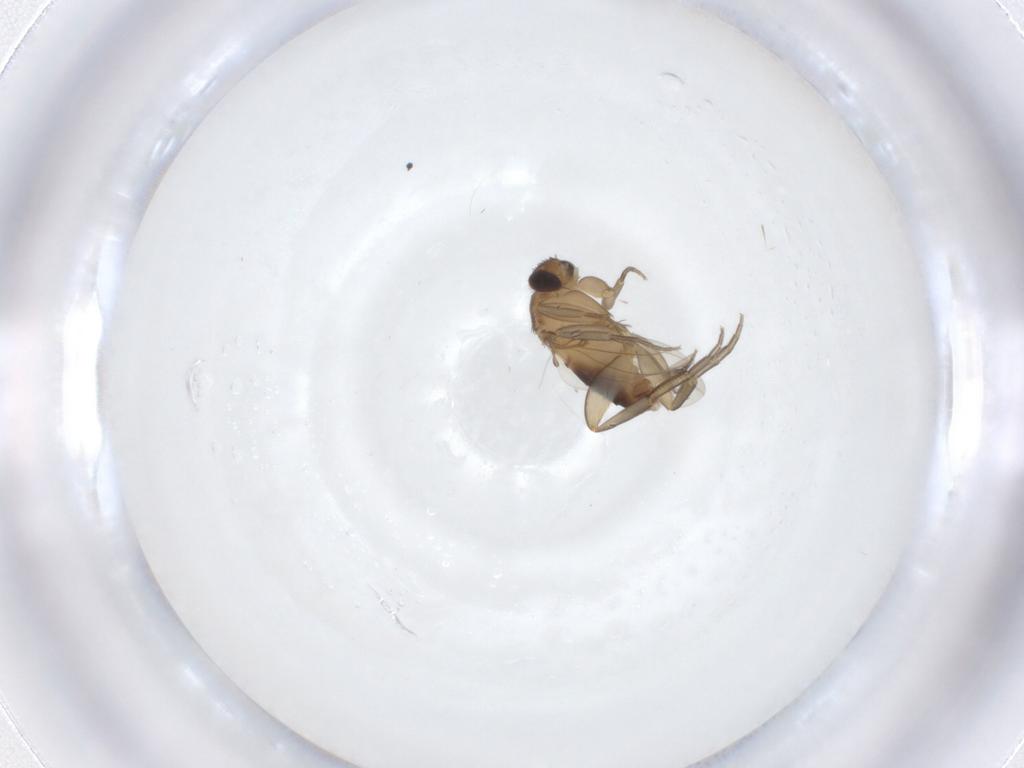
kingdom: Animalia
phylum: Arthropoda
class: Insecta
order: Diptera
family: Phoridae
